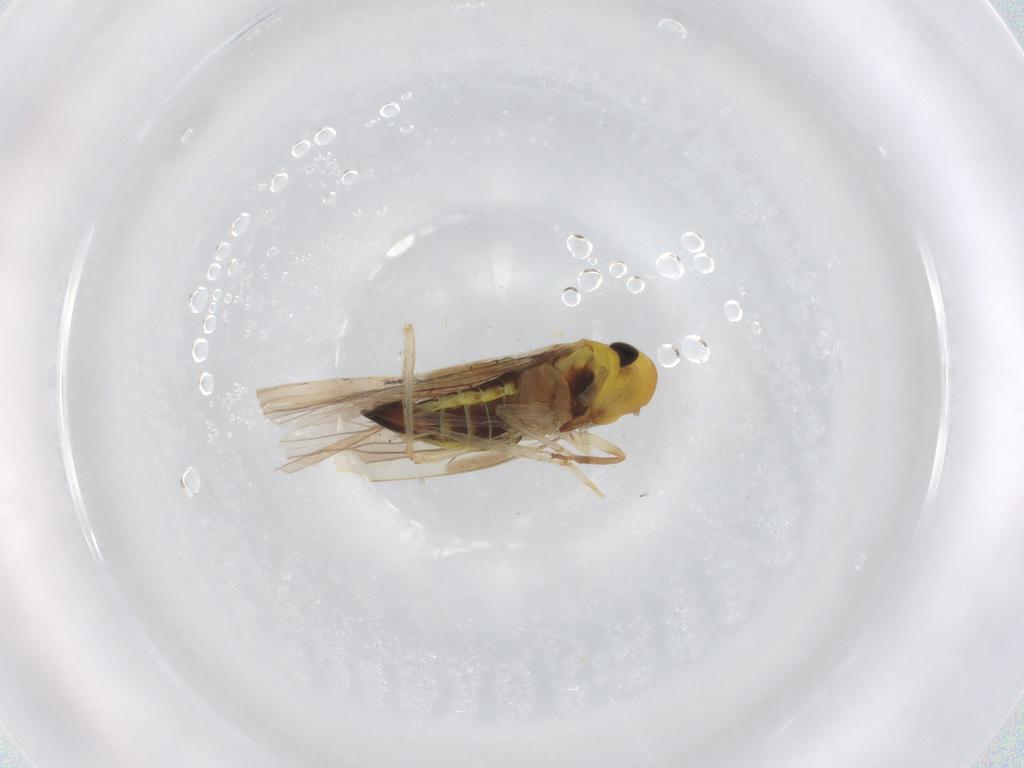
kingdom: Animalia
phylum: Arthropoda
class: Insecta
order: Hemiptera
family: Cicadellidae
